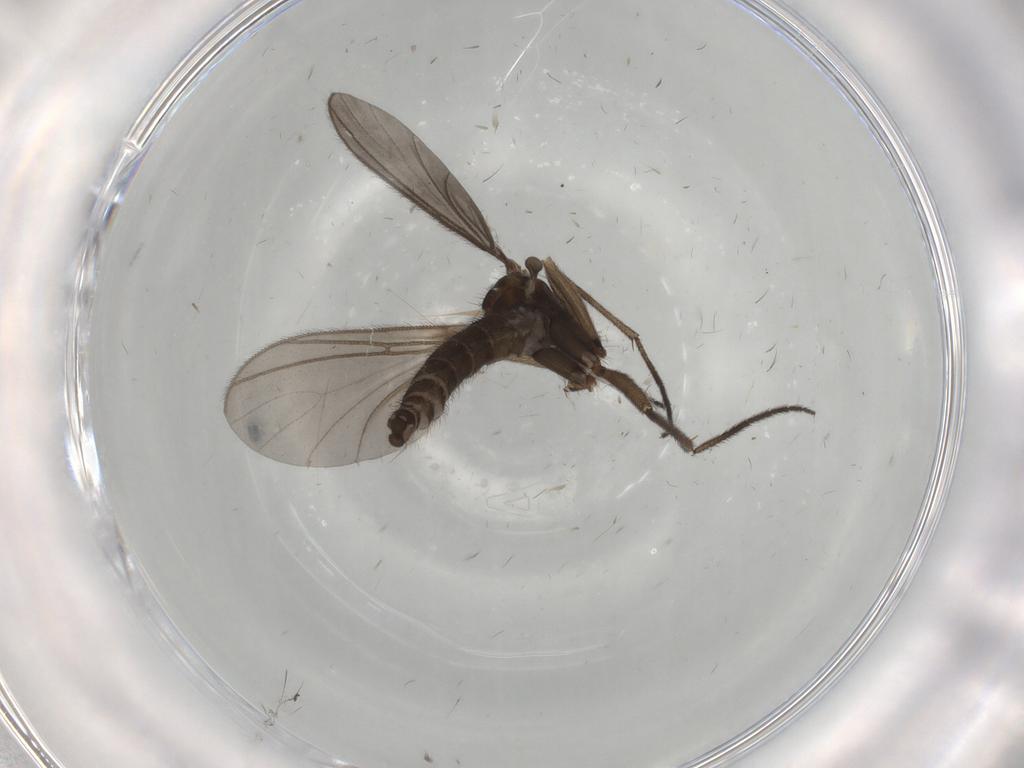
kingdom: Animalia
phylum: Arthropoda
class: Insecta
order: Diptera
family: Sciaridae
